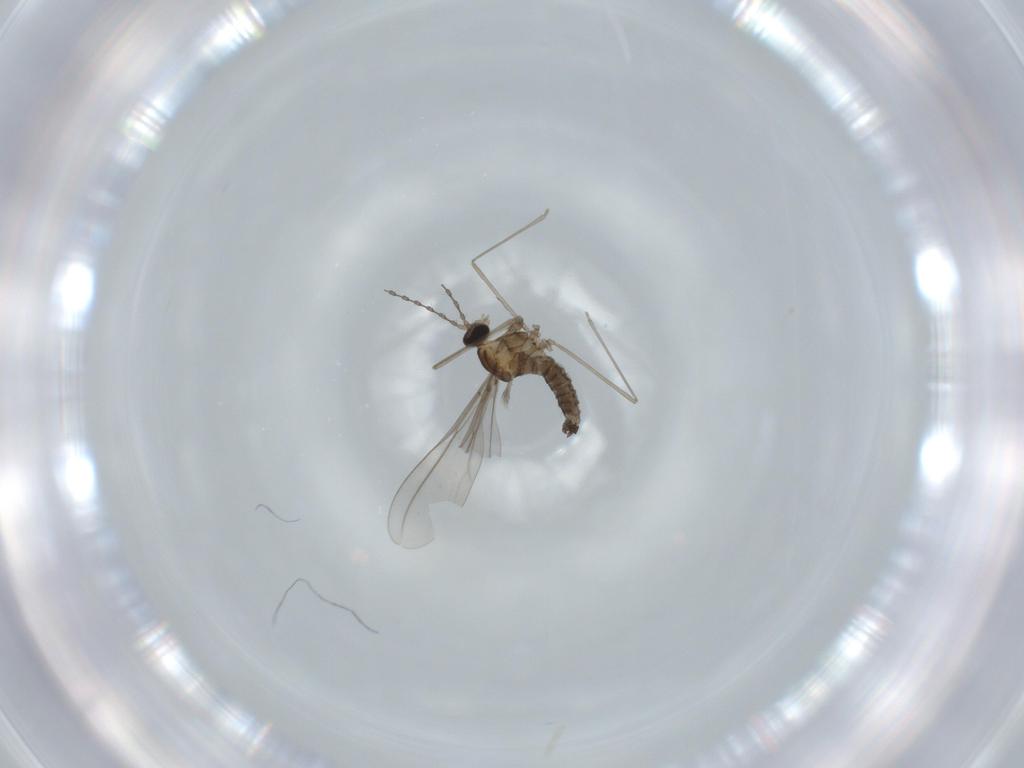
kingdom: Animalia
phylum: Arthropoda
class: Insecta
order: Diptera
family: Cecidomyiidae
